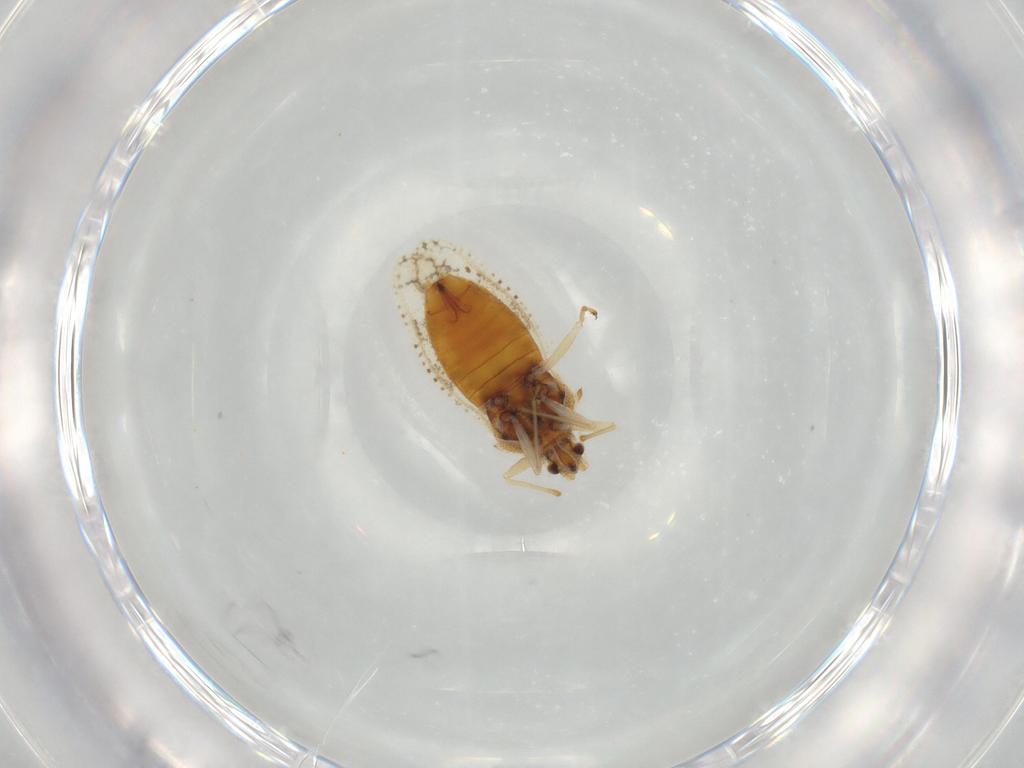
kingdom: Animalia
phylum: Arthropoda
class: Insecta
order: Hemiptera
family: Tingidae
